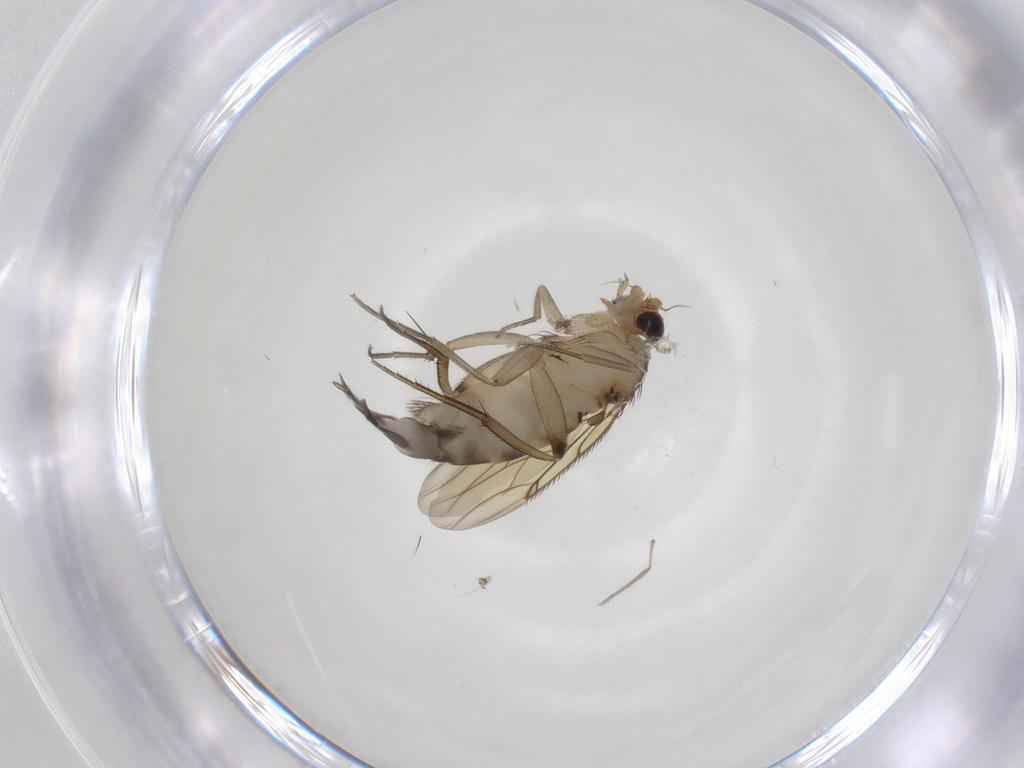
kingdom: Animalia
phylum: Arthropoda
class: Insecta
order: Diptera
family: Phoridae
